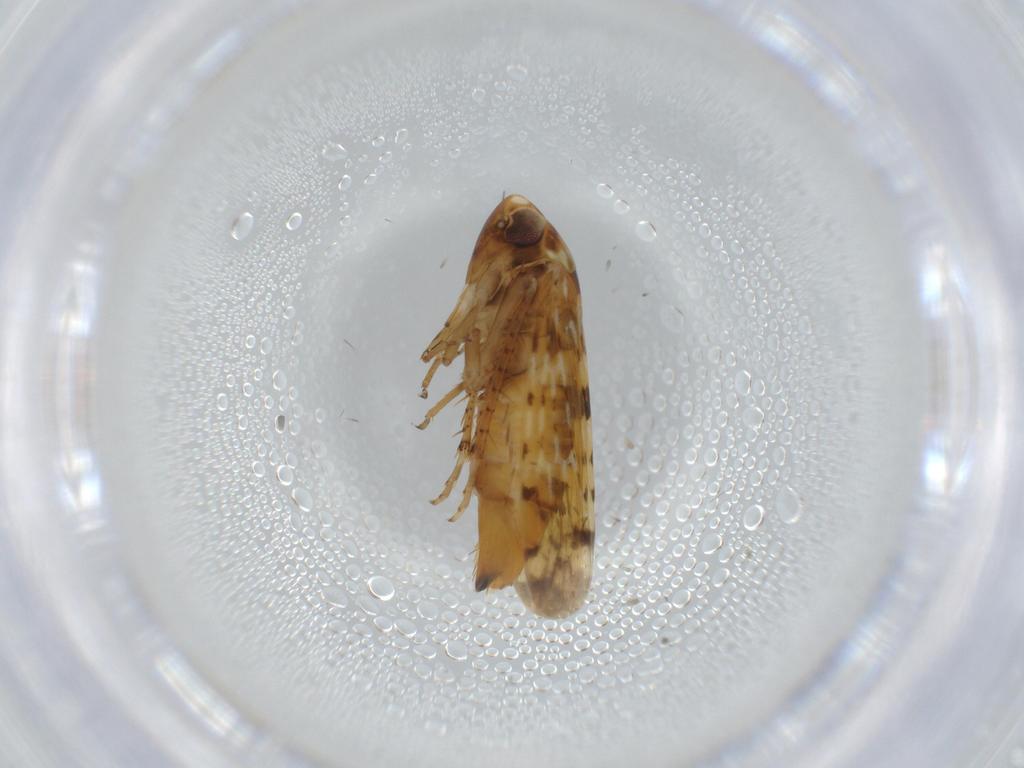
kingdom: Animalia
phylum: Arthropoda
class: Insecta
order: Hemiptera
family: Cicadellidae
